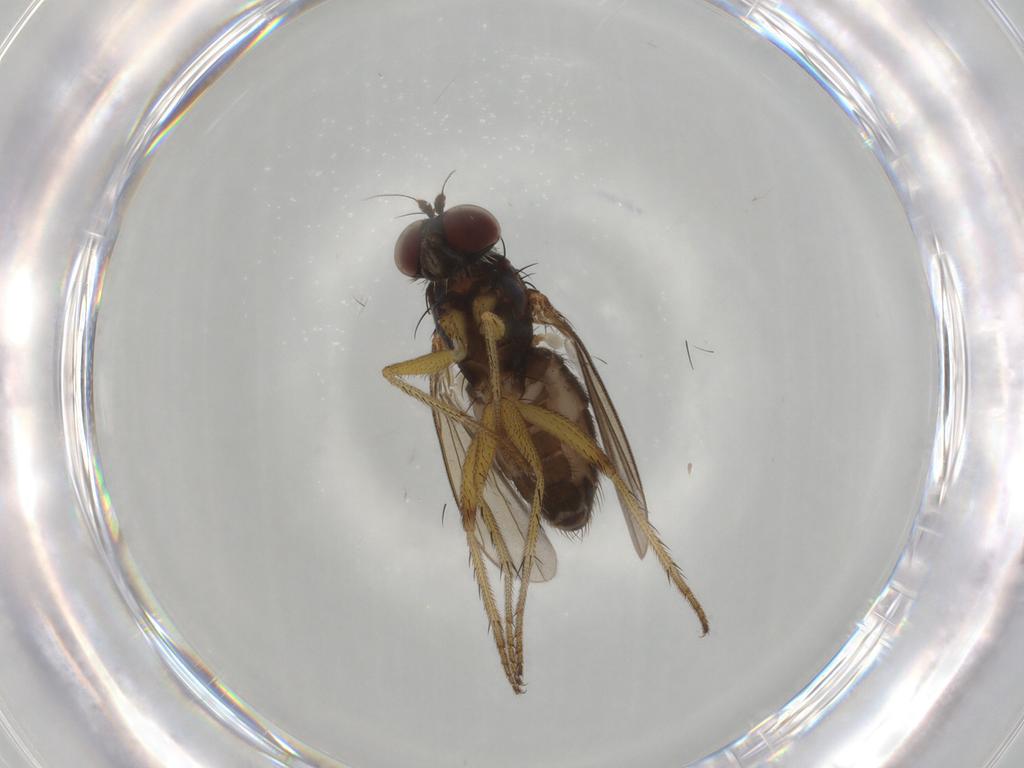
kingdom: Animalia
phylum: Arthropoda
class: Insecta
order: Diptera
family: Dolichopodidae
